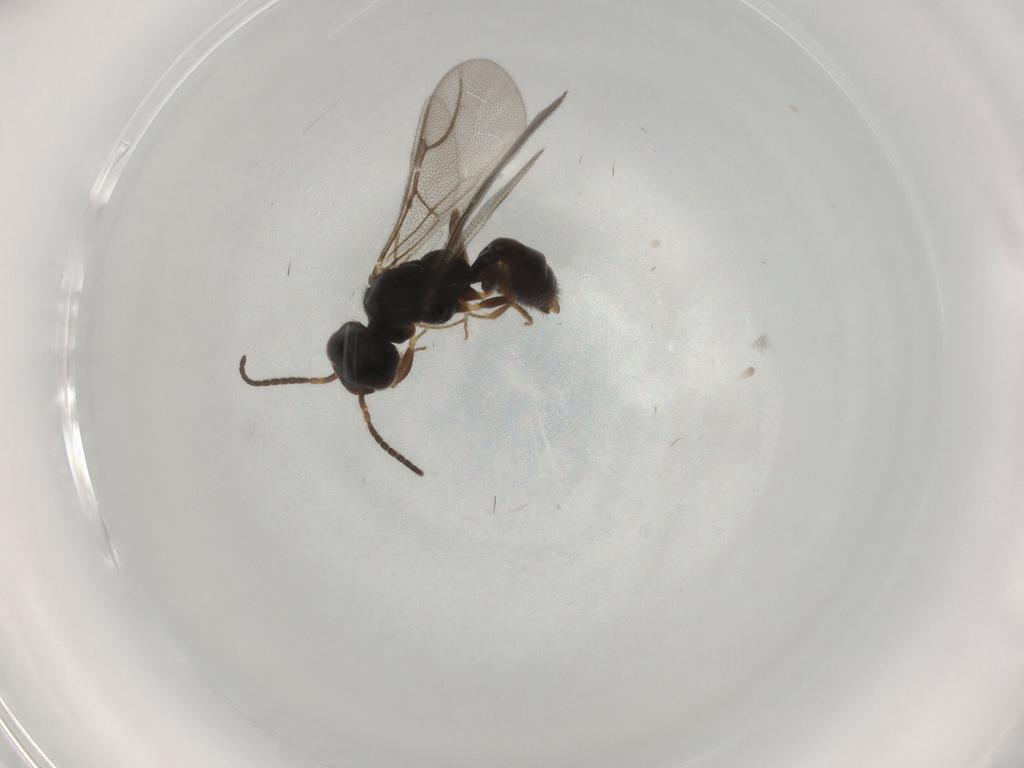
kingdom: Animalia
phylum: Arthropoda
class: Insecta
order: Hymenoptera
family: Bethylidae
